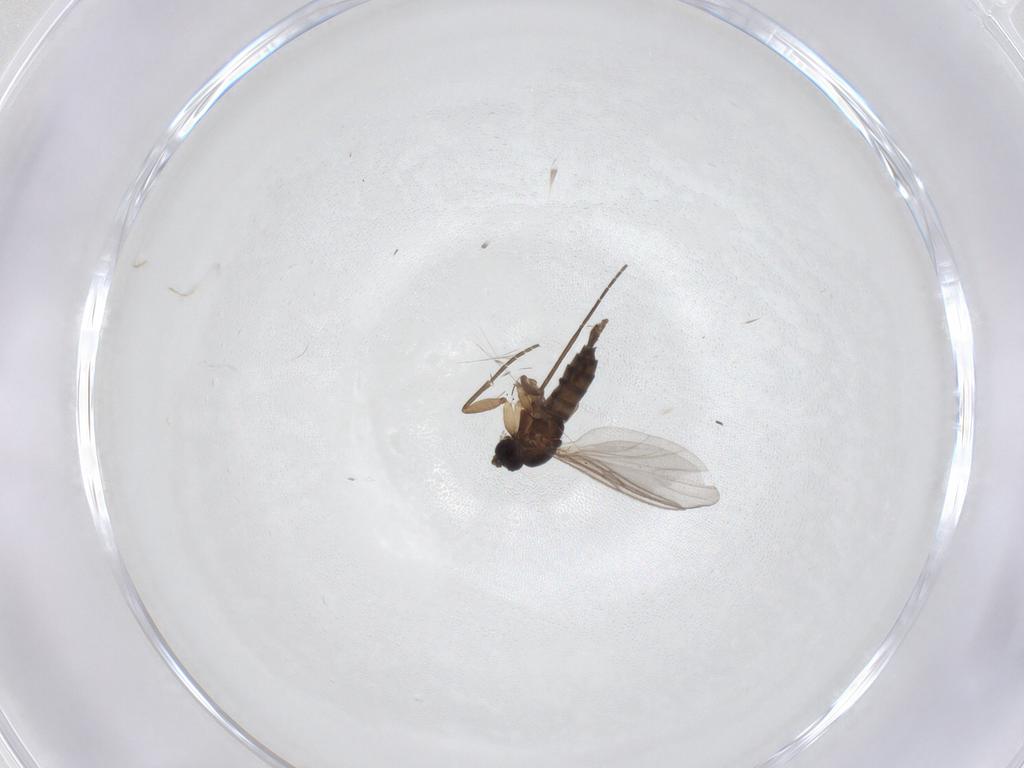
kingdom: Animalia
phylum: Arthropoda
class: Insecta
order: Diptera
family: Sciaridae
